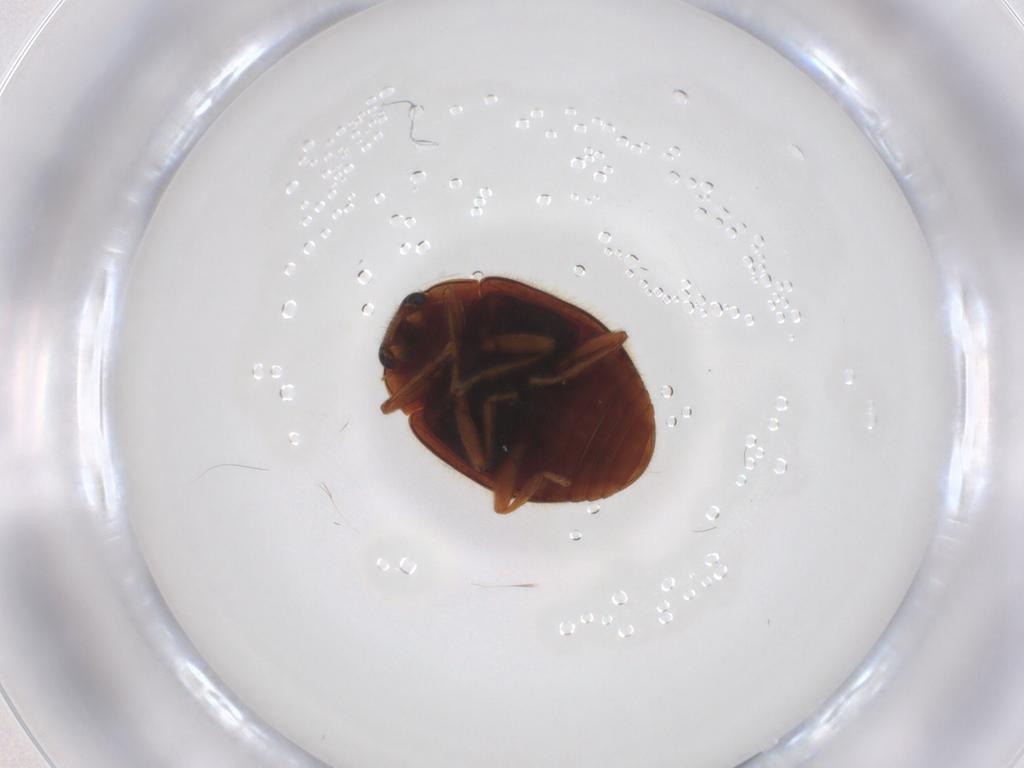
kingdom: Animalia
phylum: Arthropoda
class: Insecta
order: Coleoptera
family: Coccinellidae
